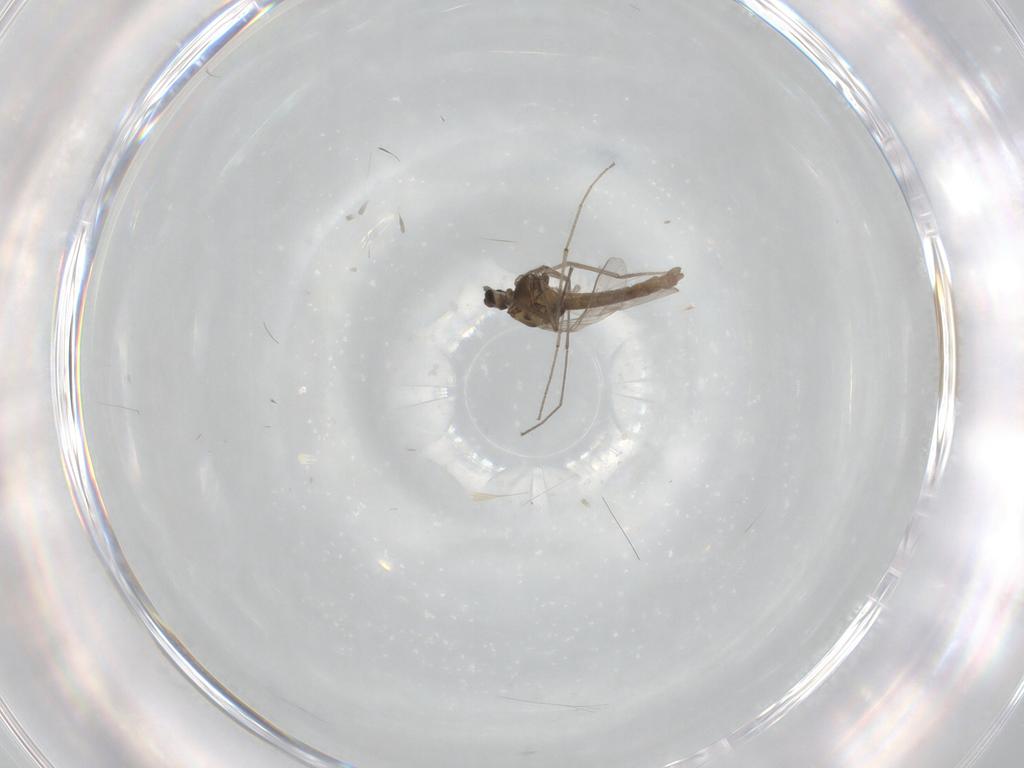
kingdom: Animalia
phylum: Arthropoda
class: Insecta
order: Diptera
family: Chironomidae
